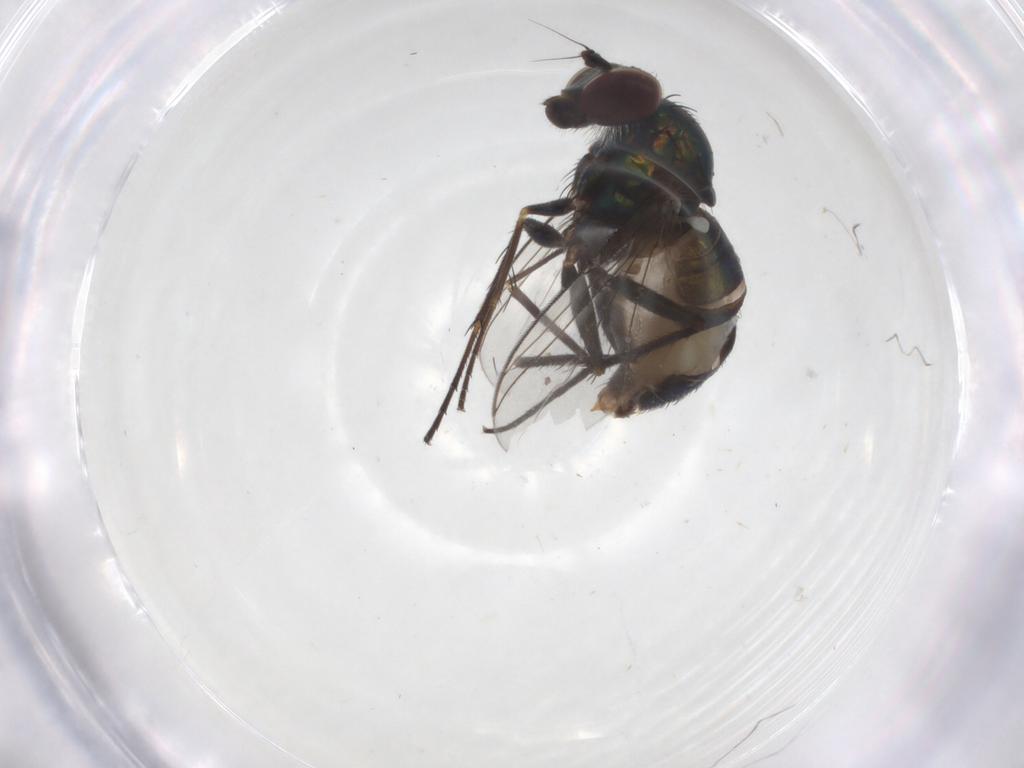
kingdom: Animalia
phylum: Arthropoda
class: Insecta
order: Diptera
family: Dolichopodidae
